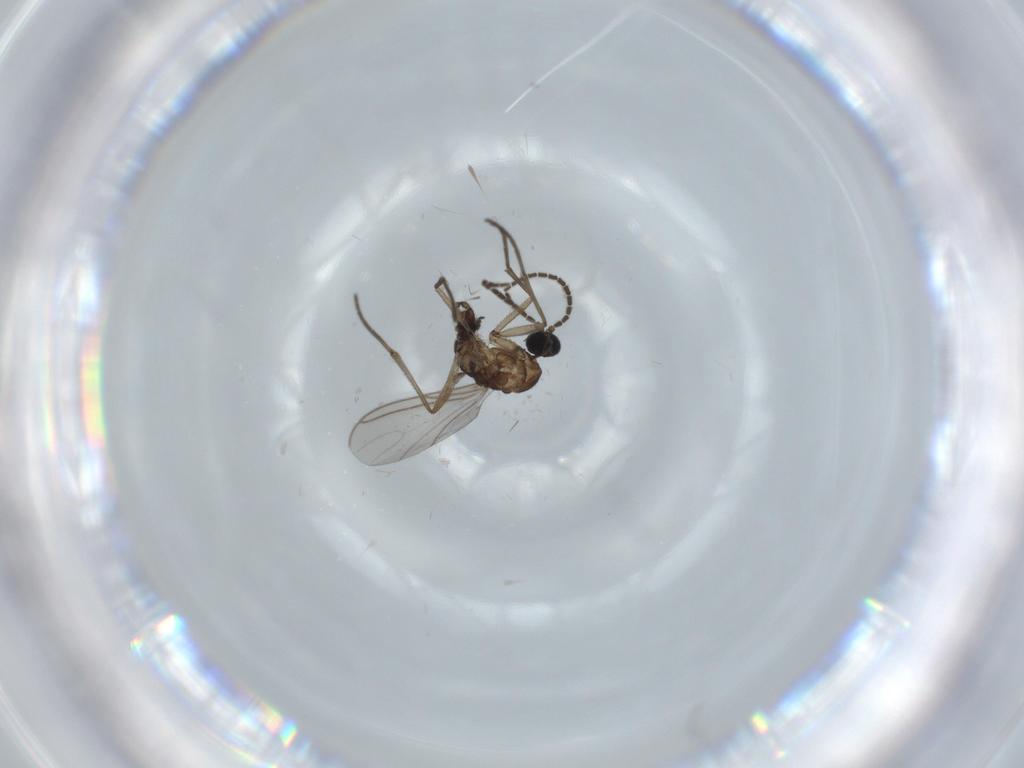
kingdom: Animalia
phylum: Arthropoda
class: Insecta
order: Diptera
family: Sciaridae
